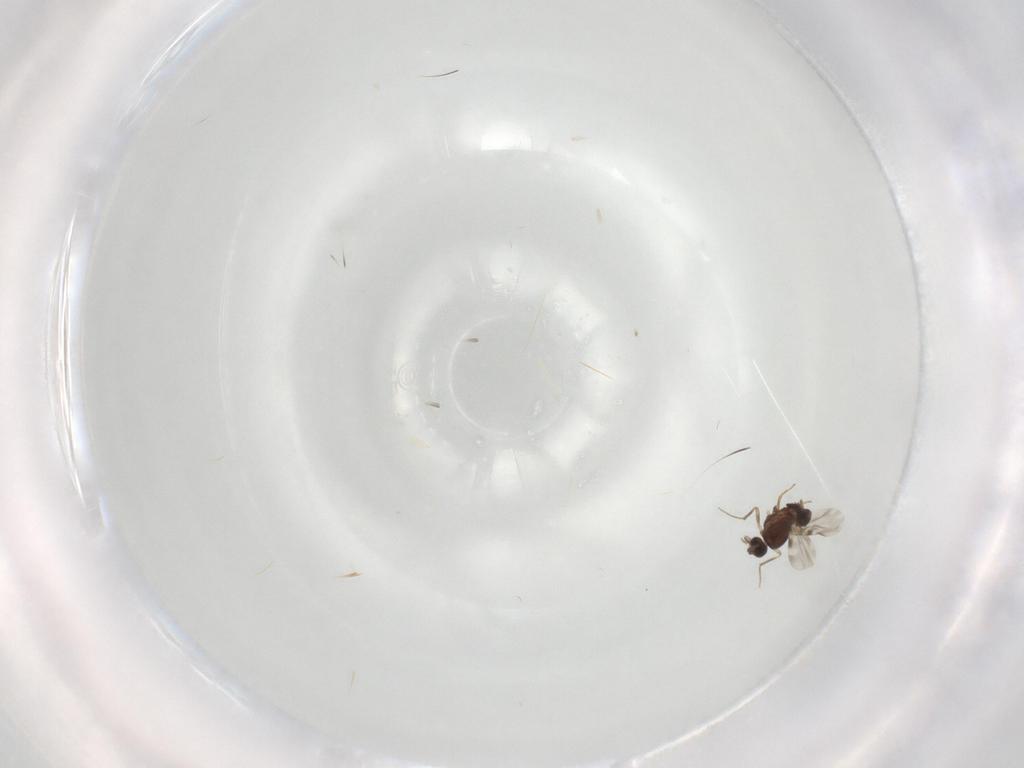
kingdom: Animalia
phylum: Arthropoda
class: Insecta
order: Diptera
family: Ceratopogonidae
